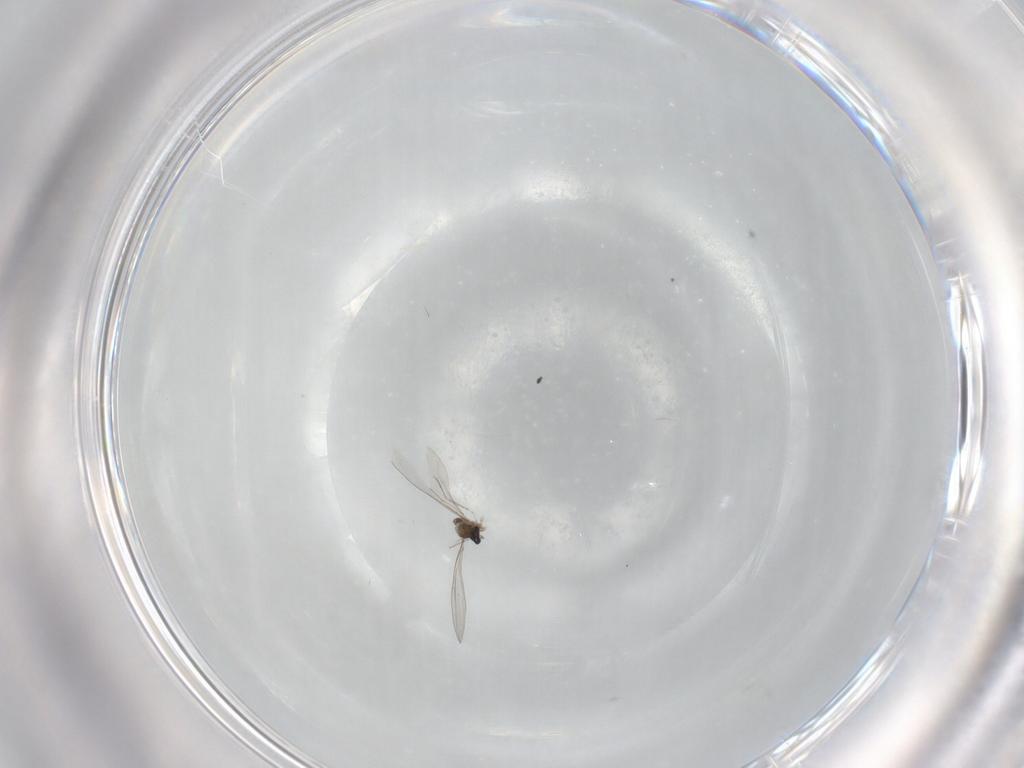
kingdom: Animalia
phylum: Arthropoda
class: Insecta
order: Diptera
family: Cecidomyiidae
